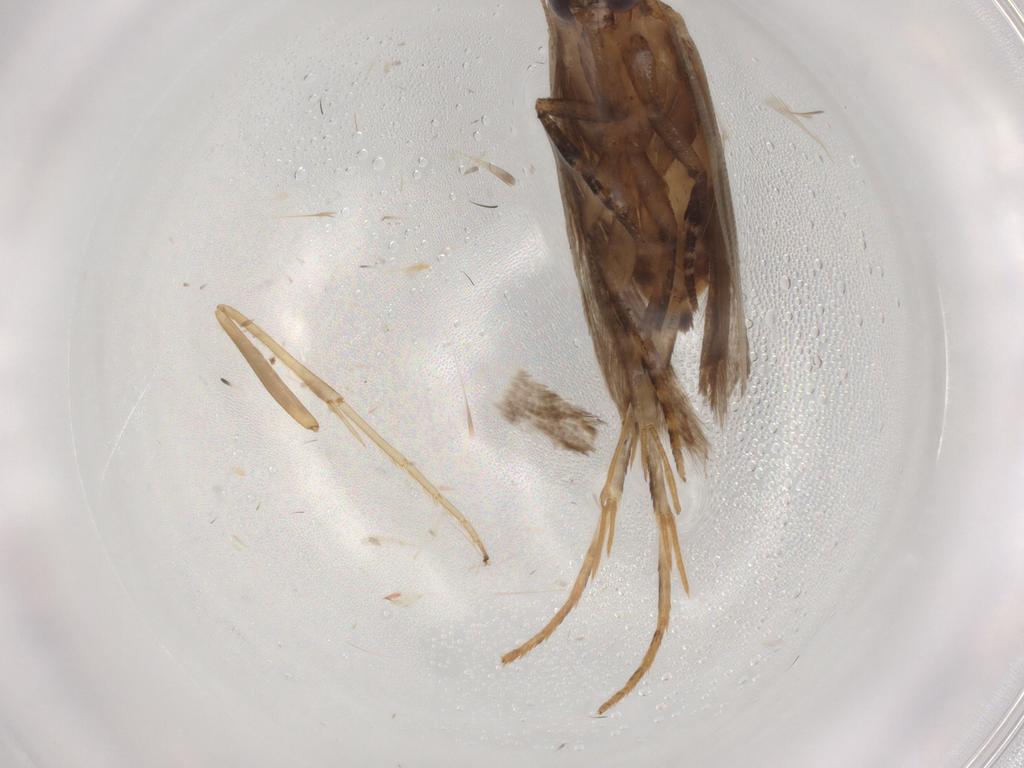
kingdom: Animalia
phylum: Arthropoda
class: Insecta
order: Lepidoptera
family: Gelechiidae
